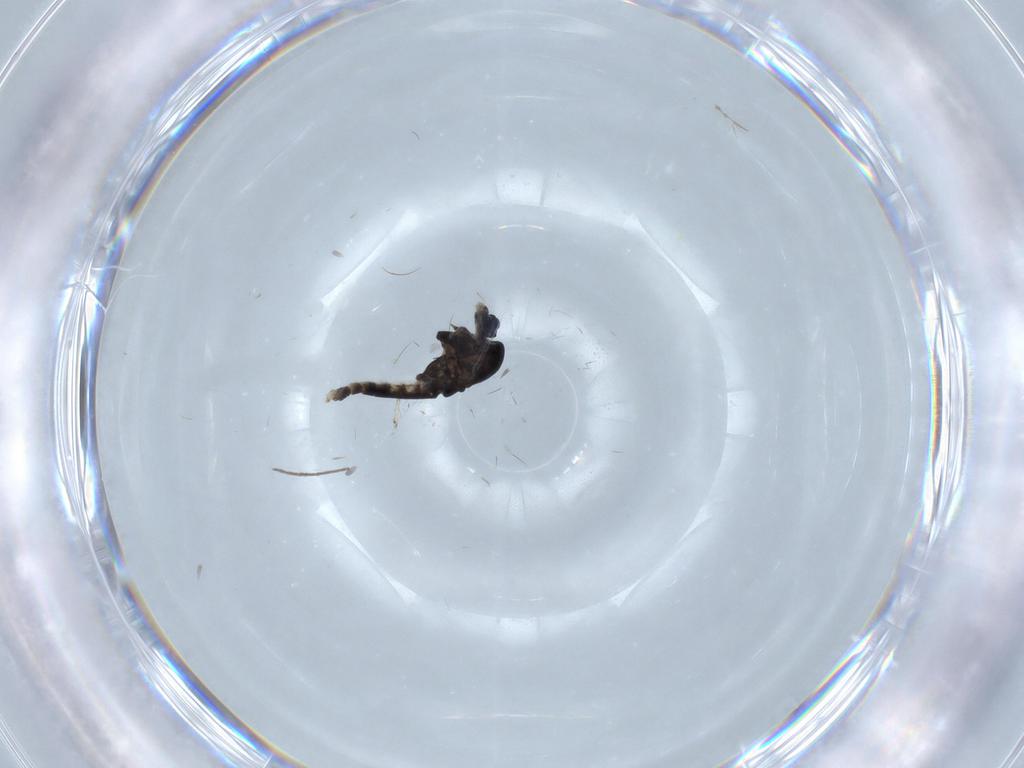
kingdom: Animalia
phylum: Arthropoda
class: Insecta
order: Diptera
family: Chironomidae
